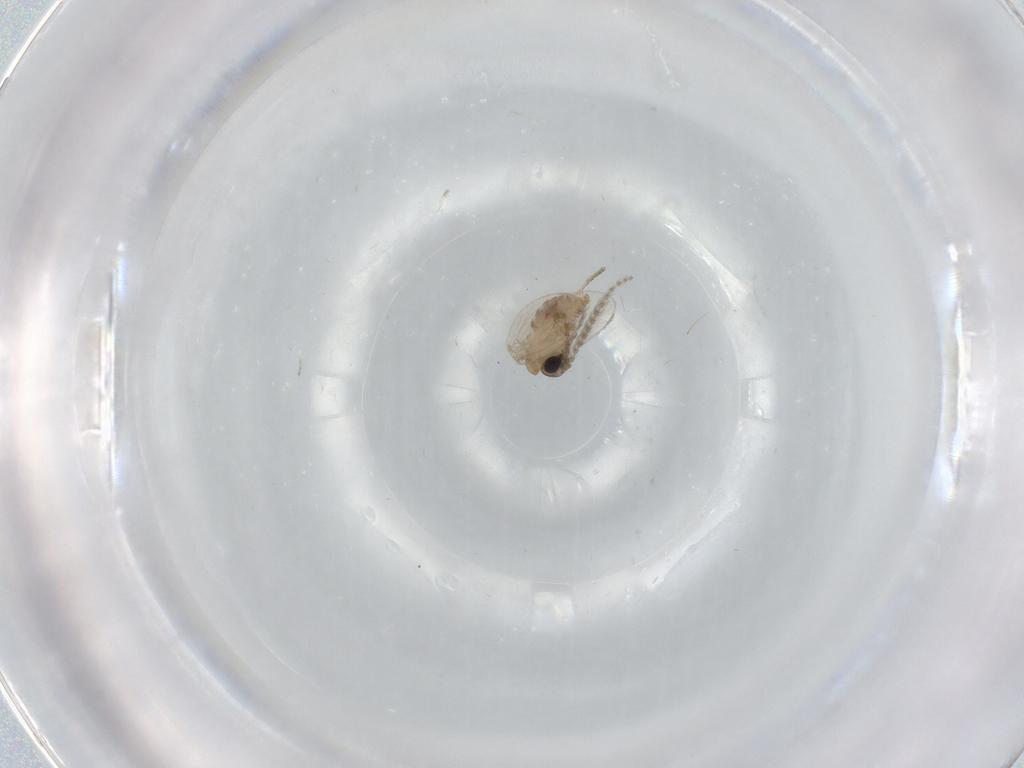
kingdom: Animalia
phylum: Arthropoda
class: Insecta
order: Diptera
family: Psychodidae
